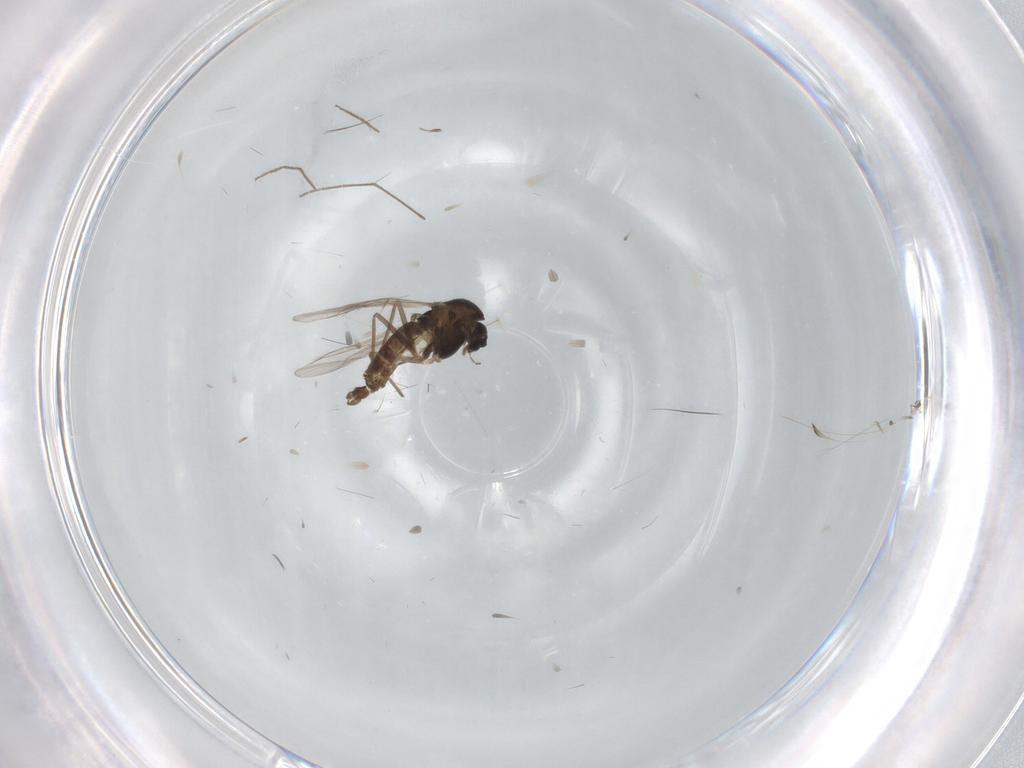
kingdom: Animalia
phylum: Arthropoda
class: Insecta
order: Diptera
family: Chironomidae
